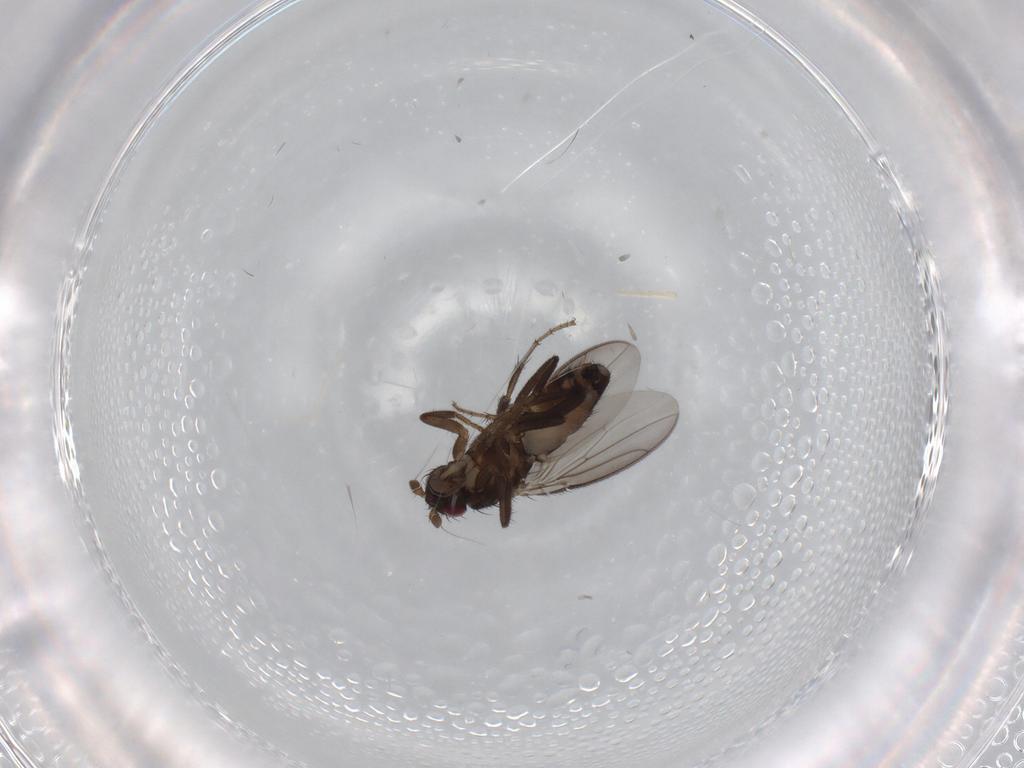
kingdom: Animalia
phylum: Arthropoda
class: Insecta
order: Diptera
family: Sphaeroceridae
